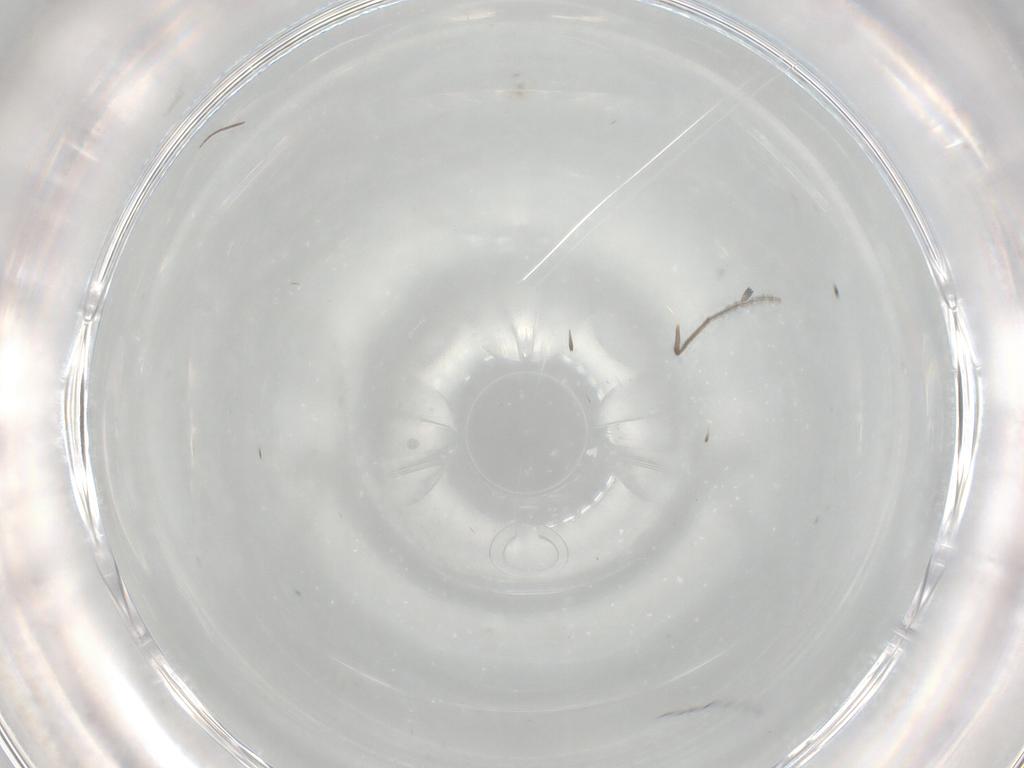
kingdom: Animalia
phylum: Arthropoda
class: Insecta
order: Diptera
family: Chironomidae
